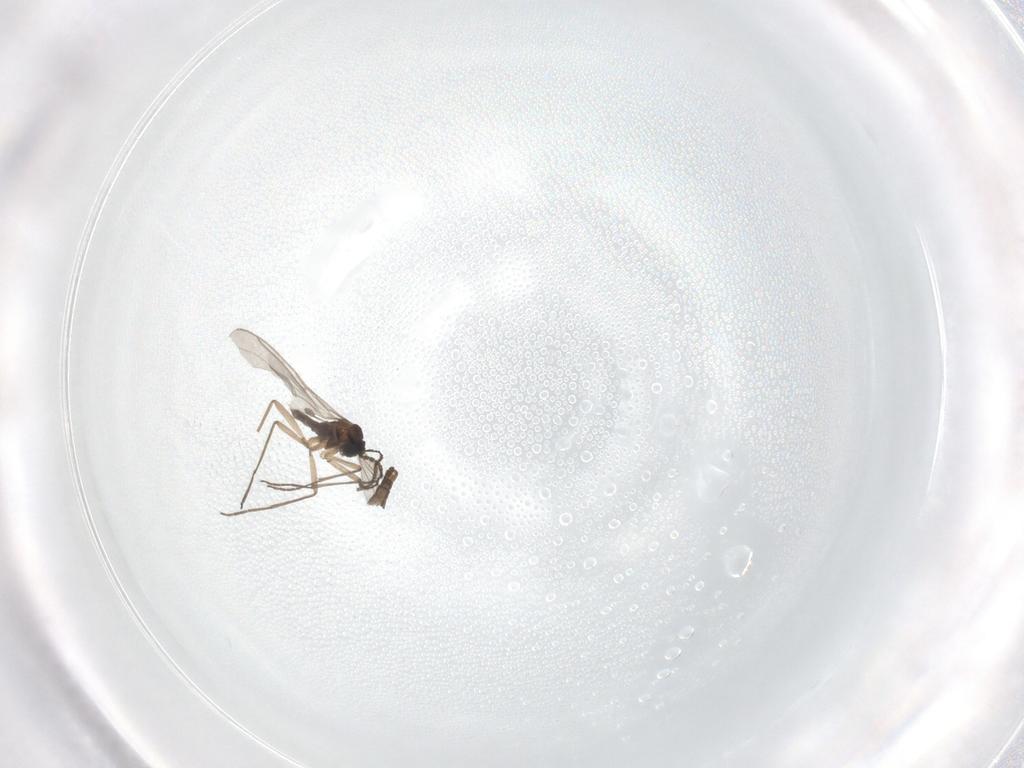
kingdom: Animalia
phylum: Arthropoda
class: Insecta
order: Diptera
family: Sciaridae
